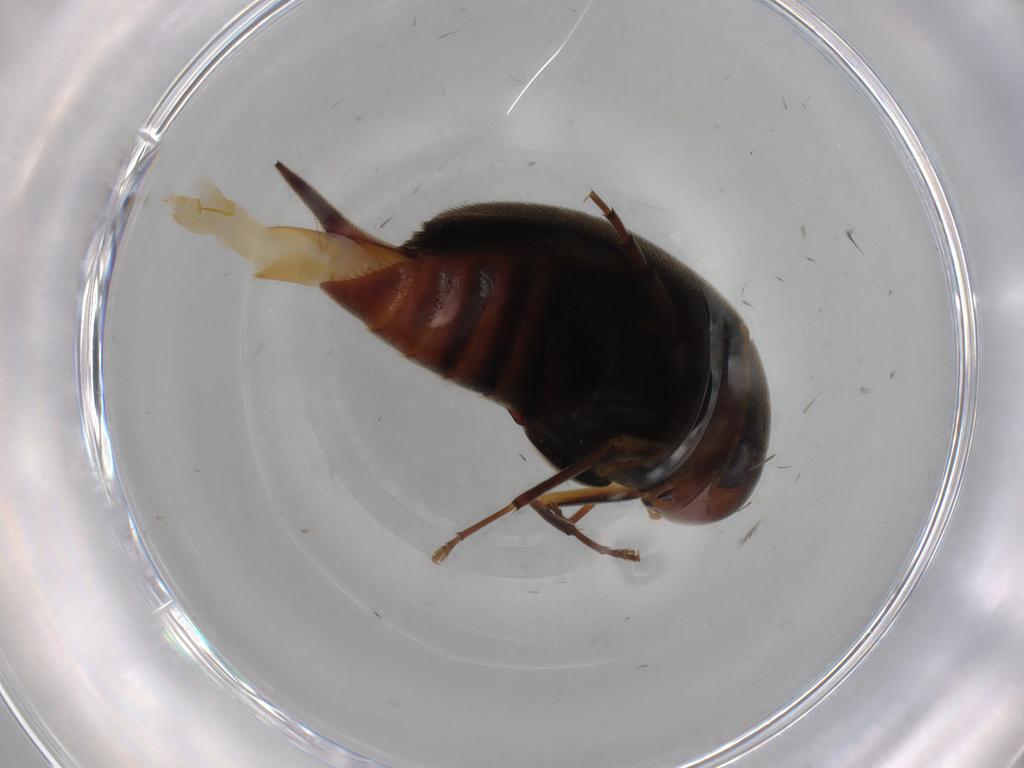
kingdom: Animalia
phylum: Arthropoda
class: Insecta
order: Coleoptera
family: Mordellidae
